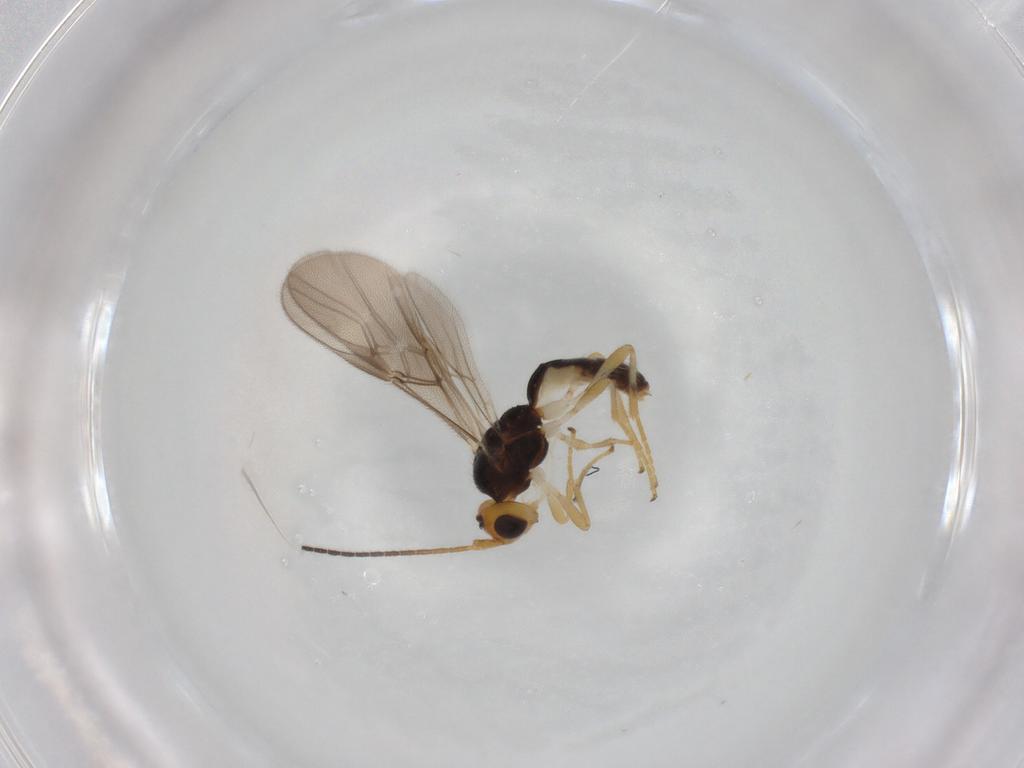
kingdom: Animalia
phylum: Arthropoda
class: Insecta
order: Hymenoptera
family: Braconidae
